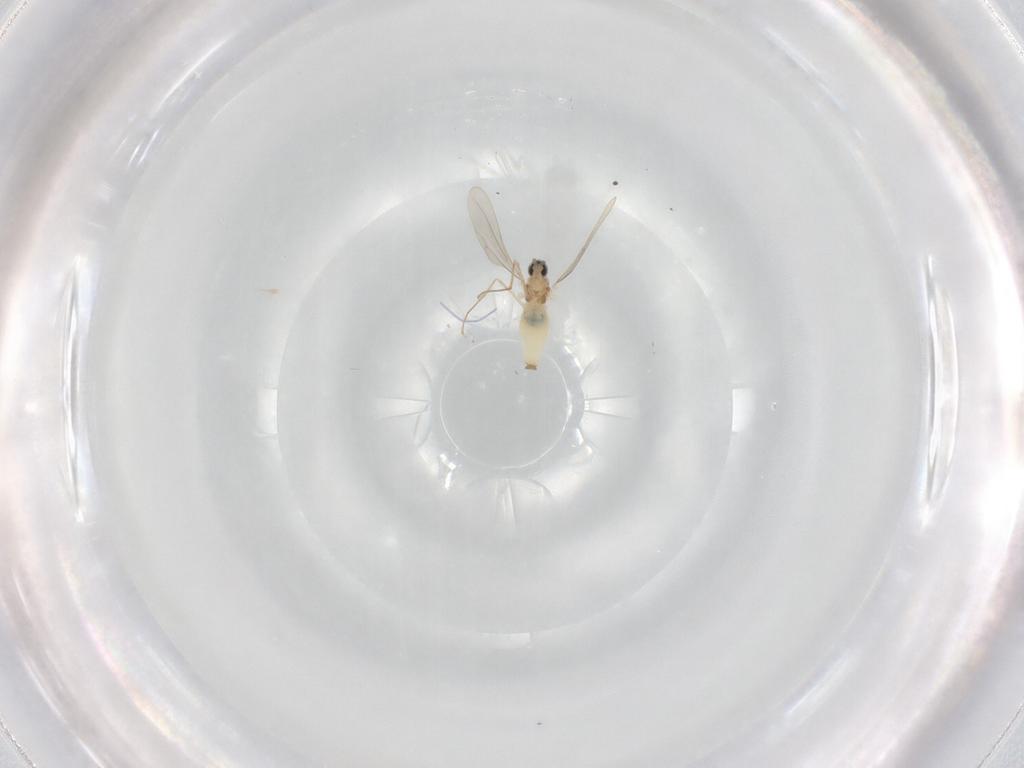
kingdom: Animalia
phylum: Arthropoda
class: Insecta
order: Diptera
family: Cecidomyiidae
